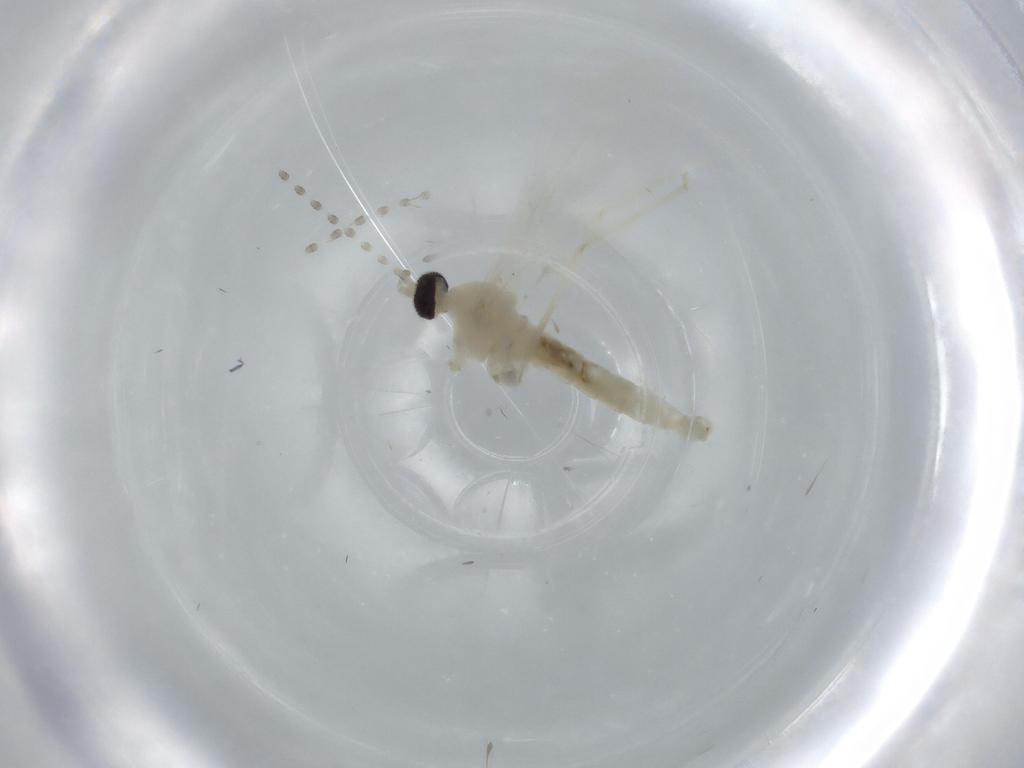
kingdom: Animalia
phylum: Arthropoda
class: Insecta
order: Diptera
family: Cecidomyiidae
